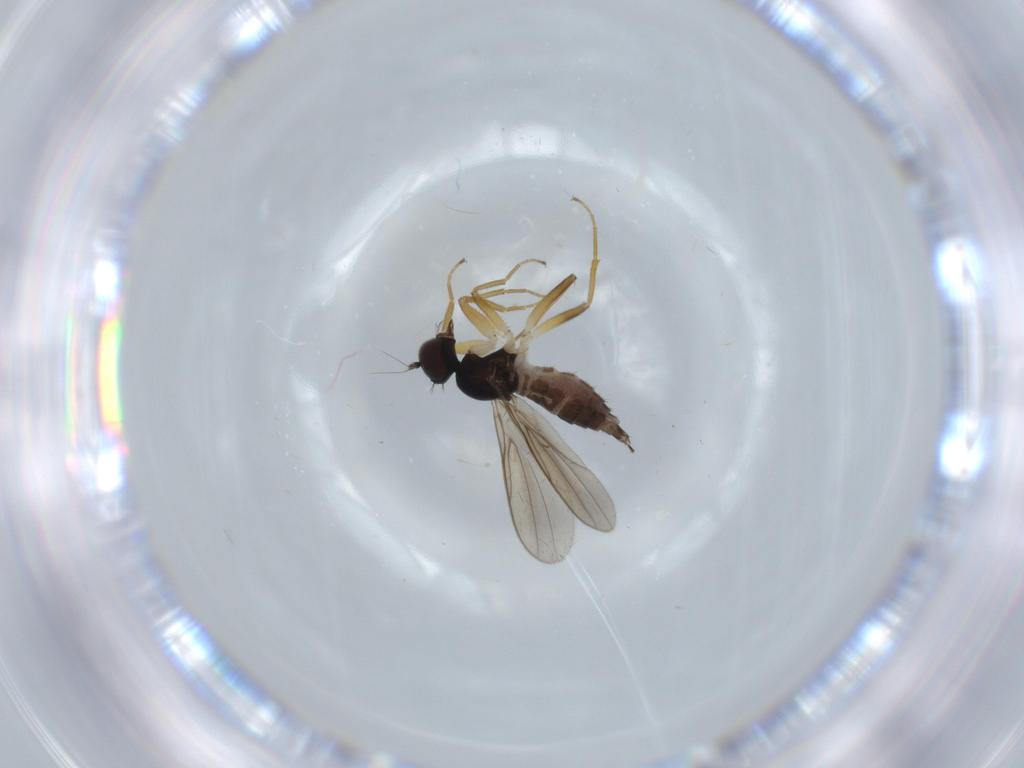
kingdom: Animalia
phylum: Arthropoda
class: Insecta
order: Diptera
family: Hybotidae
